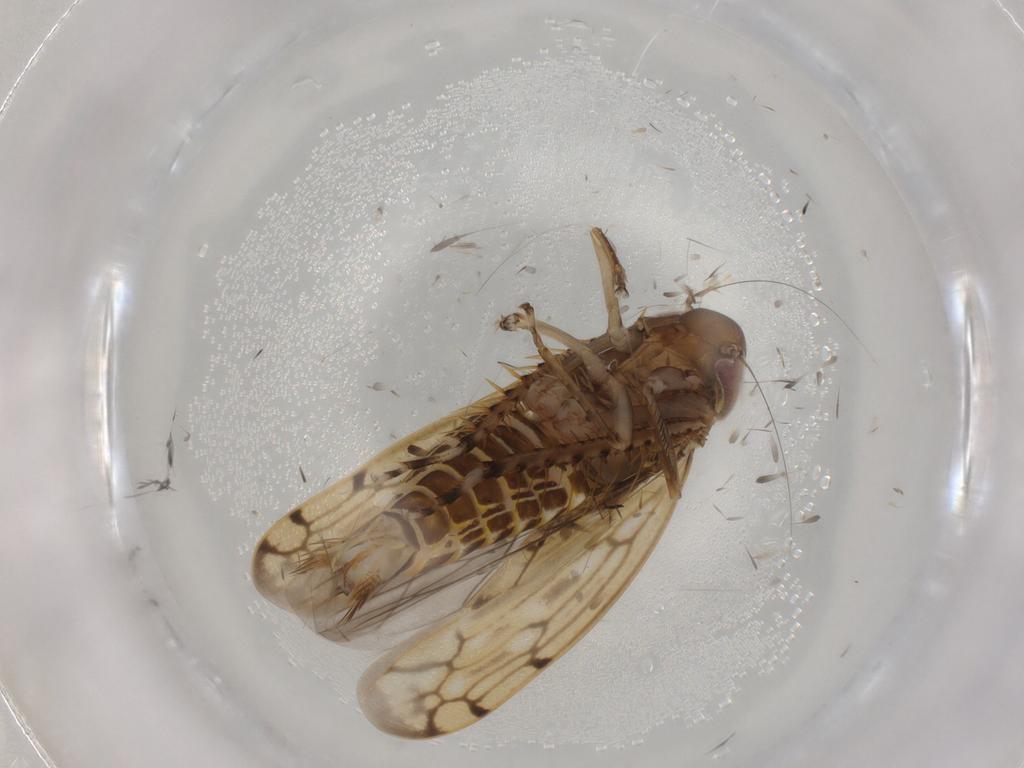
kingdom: Animalia
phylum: Arthropoda
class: Insecta
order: Hemiptera
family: Cicadellidae
